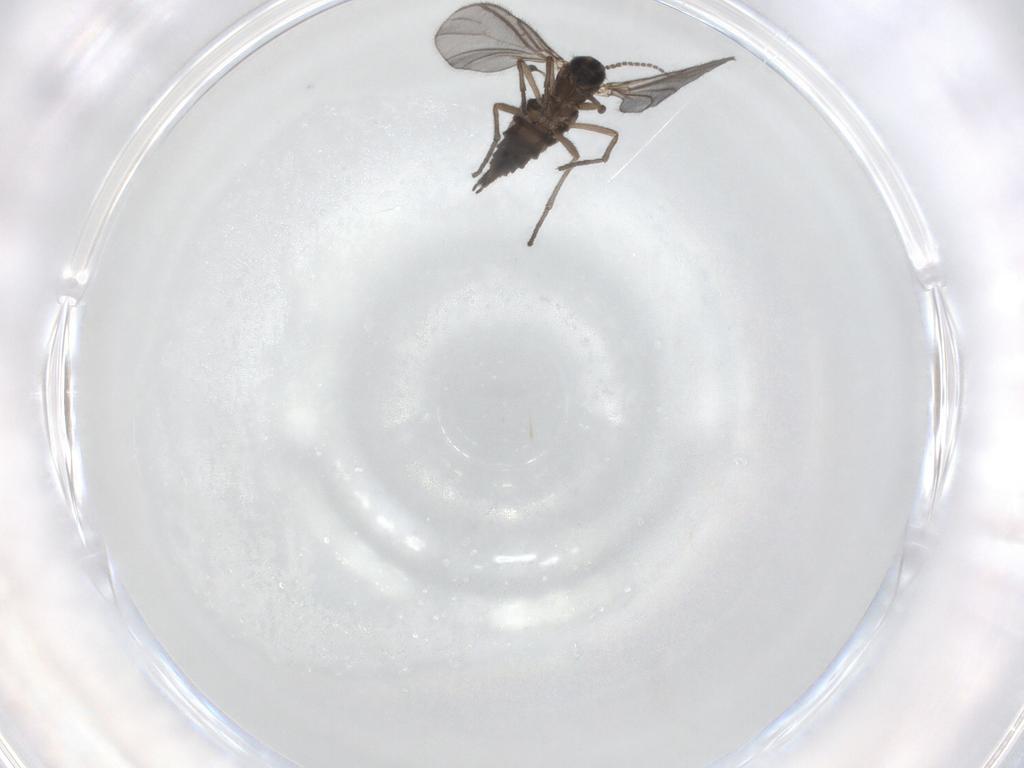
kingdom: Animalia
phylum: Arthropoda
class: Insecta
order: Diptera
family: Sciaridae
